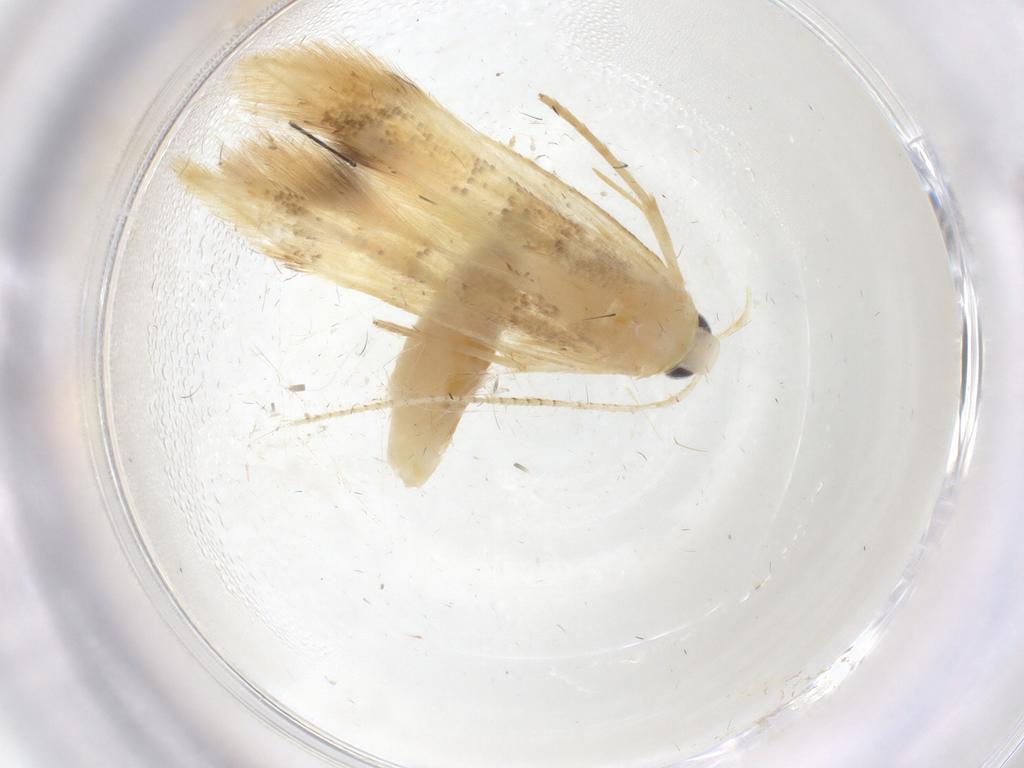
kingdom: Animalia
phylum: Arthropoda
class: Insecta
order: Lepidoptera
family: Oecophoridae
